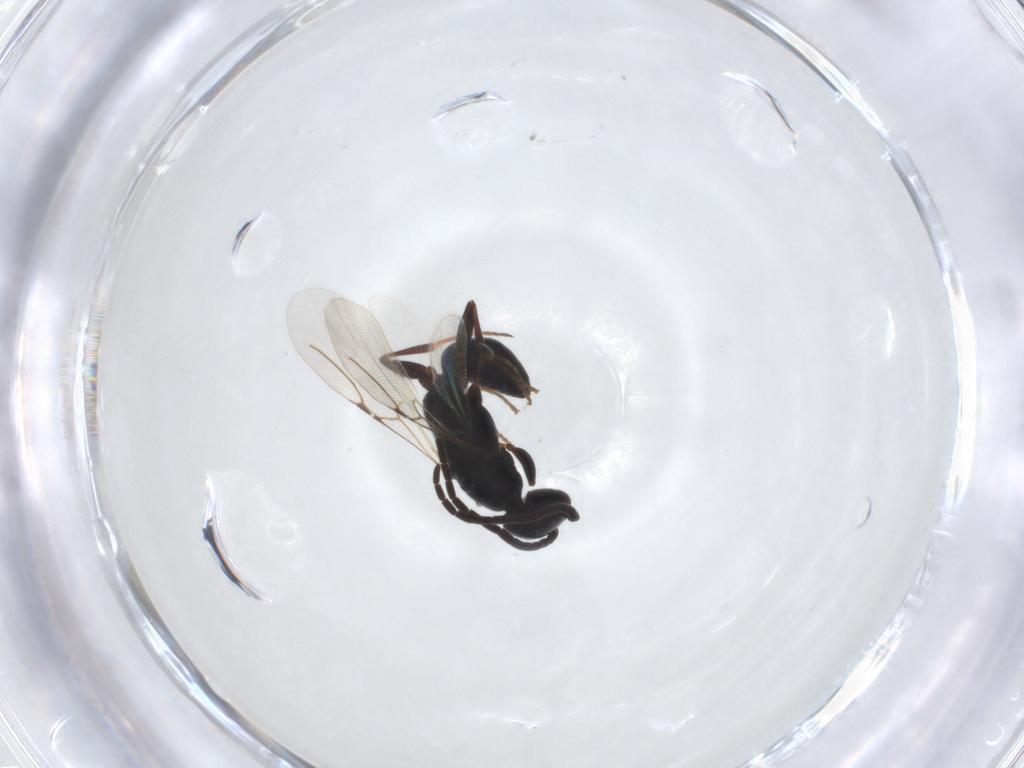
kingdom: Animalia
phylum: Arthropoda
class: Insecta
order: Hymenoptera
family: Bethylidae
